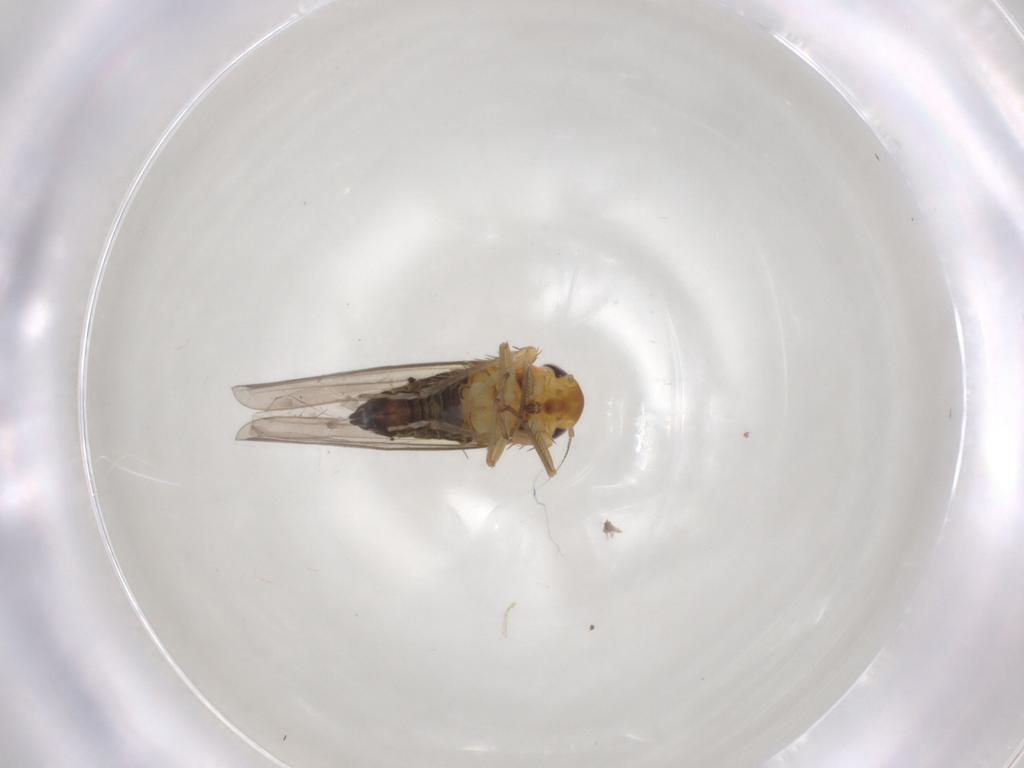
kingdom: Animalia
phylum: Arthropoda
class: Insecta
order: Hemiptera
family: Cicadellidae
